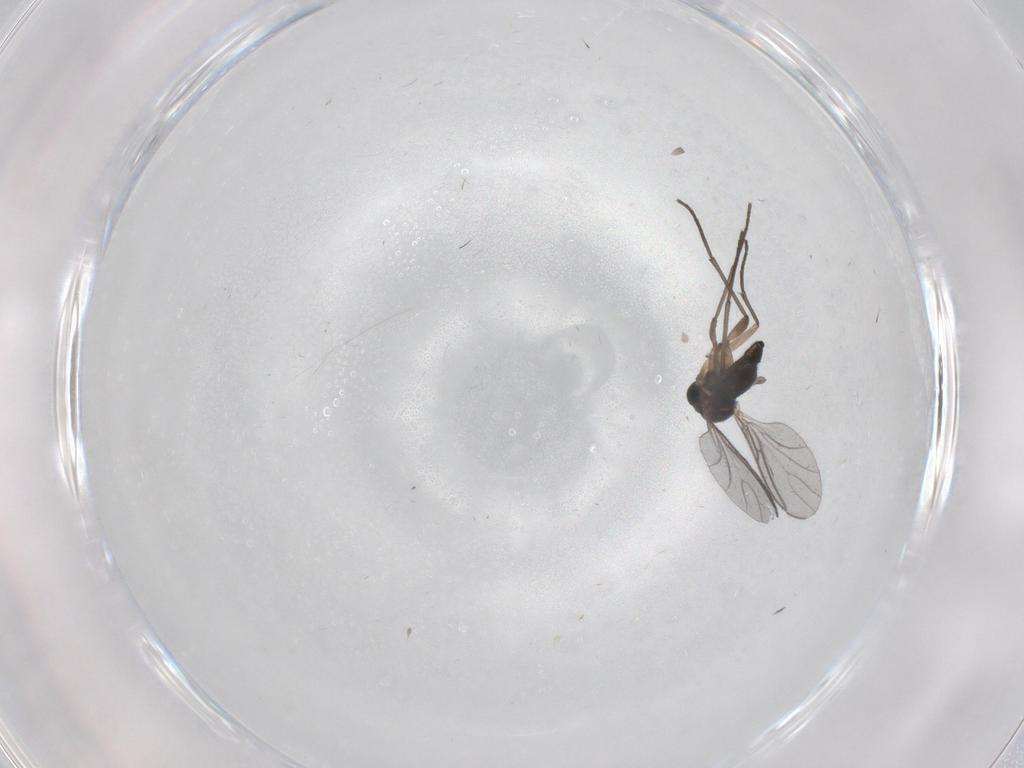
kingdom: Animalia
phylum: Arthropoda
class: Insecta
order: Diptera
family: Sciaridae
